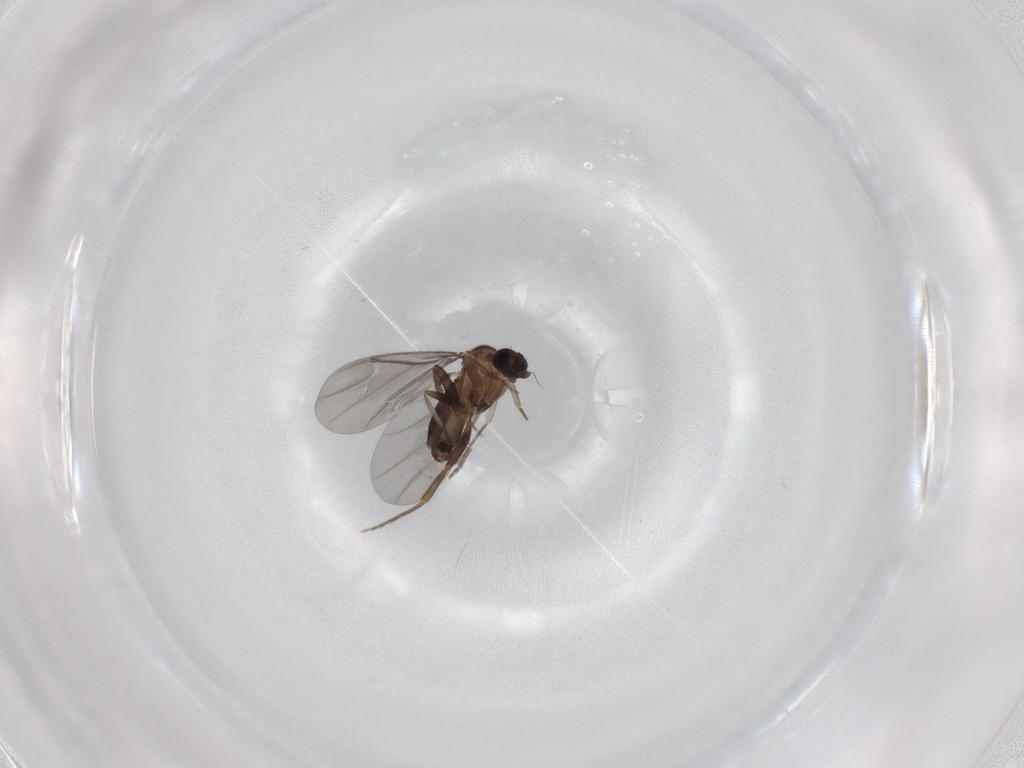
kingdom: Animalia
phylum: Arthropoda
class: Insecta
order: Diptera
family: Phoridae
